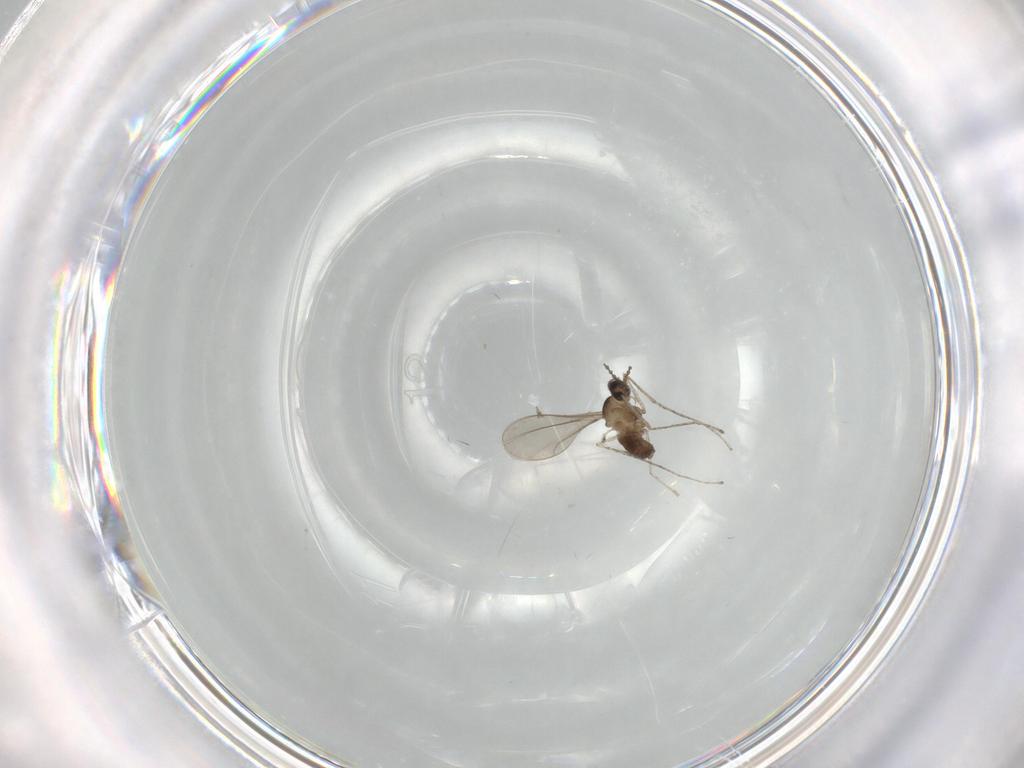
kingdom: Animalia
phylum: Arthropoda
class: Insecta
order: Diptera
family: Cecidomyiidae
